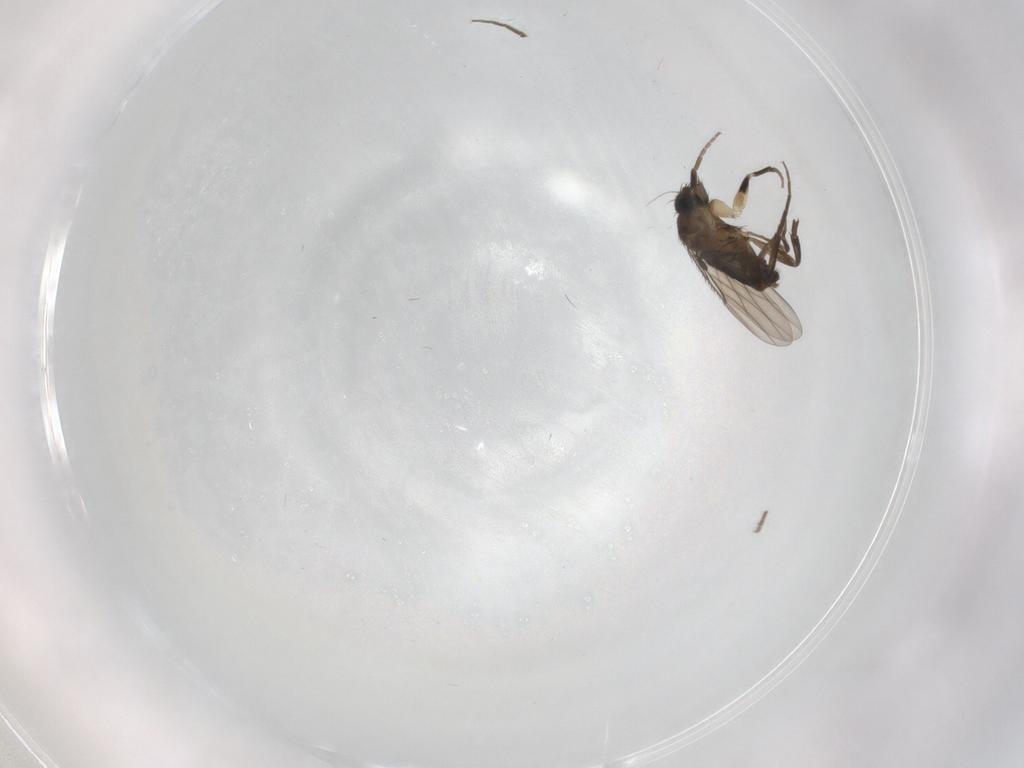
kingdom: Animalia
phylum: Arthropoda
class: Insecta
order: Diptera
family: Phoridae
